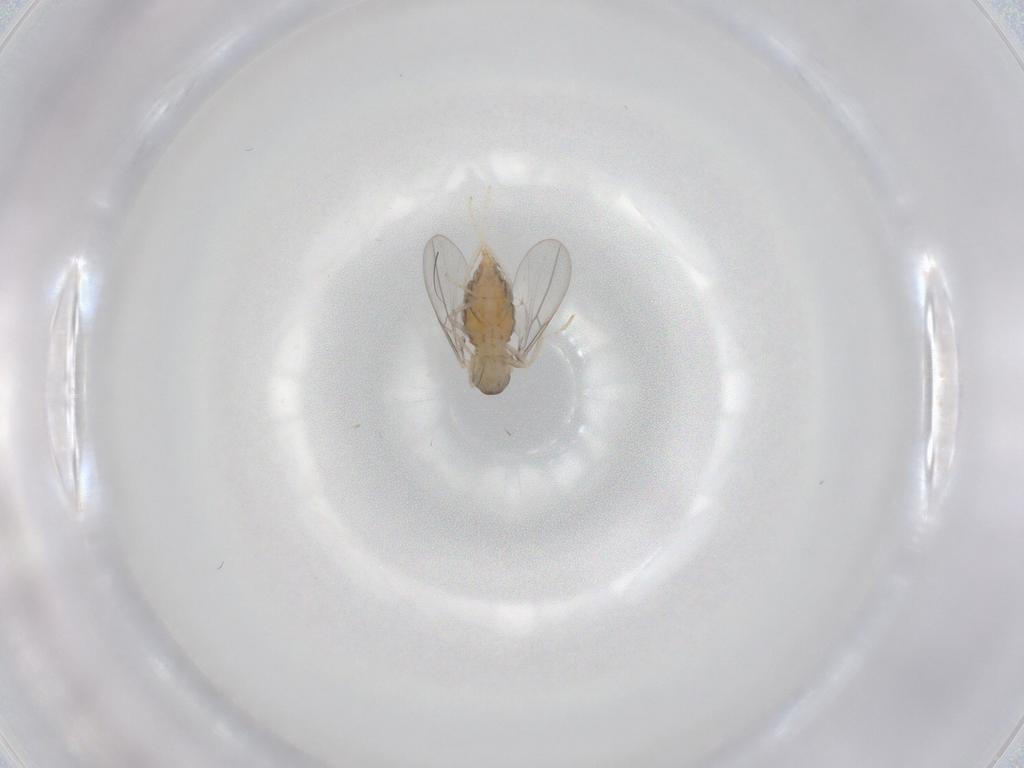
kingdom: Animalia
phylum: Arthropoda
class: Insecta
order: Diptera
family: Cecidomyiidae
